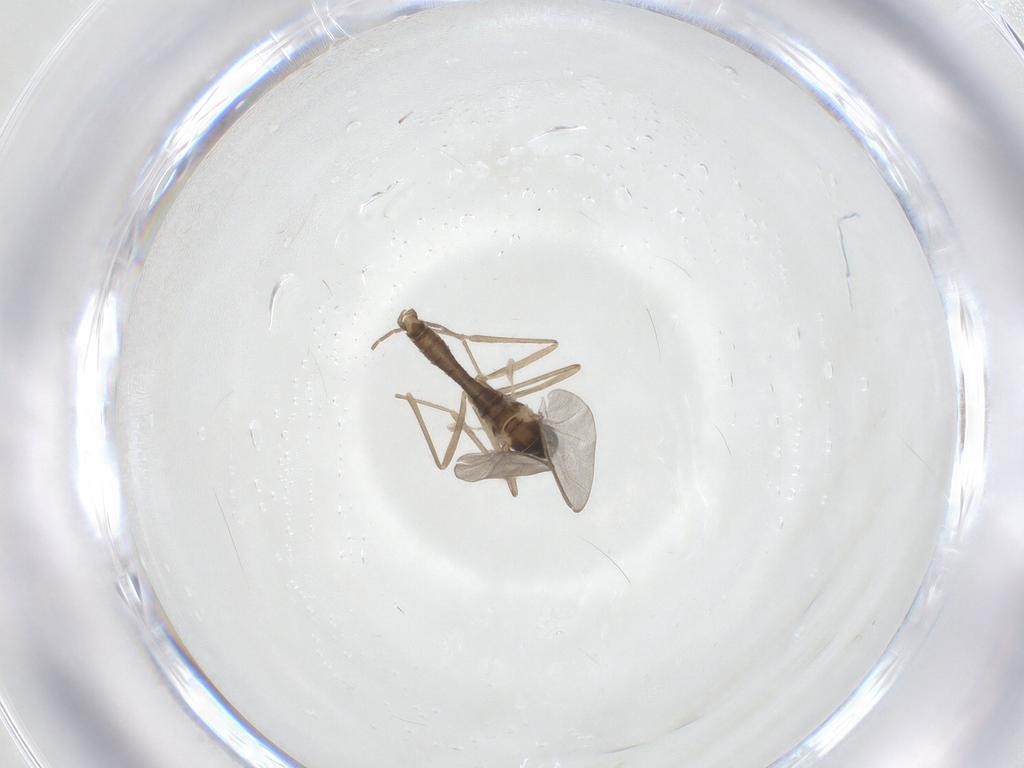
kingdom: Animalia
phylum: Arthropoda
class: Insecta
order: Diptera
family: Cecidomyiidae
